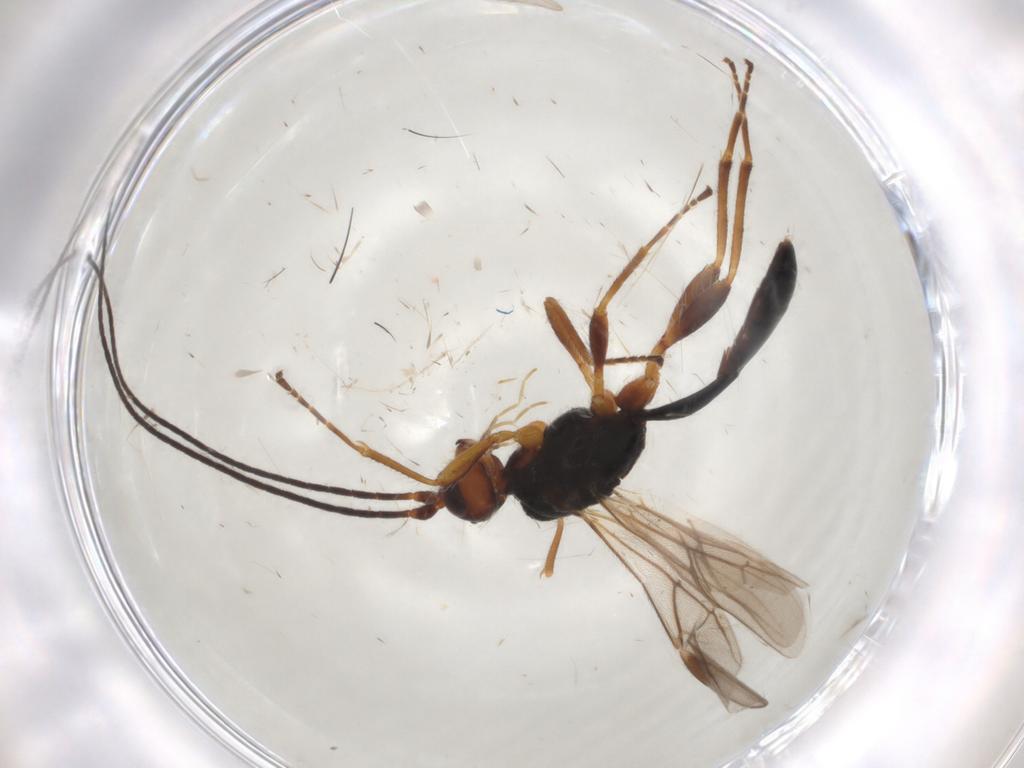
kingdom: Animalia
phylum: Arthropoda
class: Insecta
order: Hymenoptera
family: Braconidae
